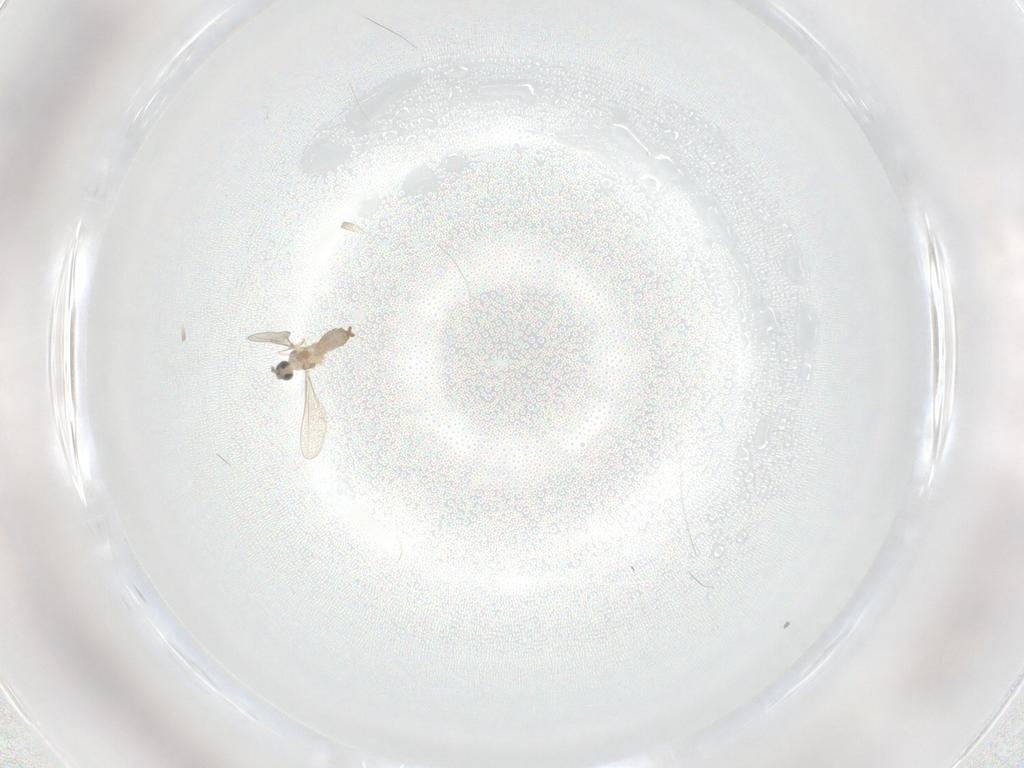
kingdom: Animalia
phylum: Arthropoda
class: Insecta
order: Diptera
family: Cecidomyiidae
